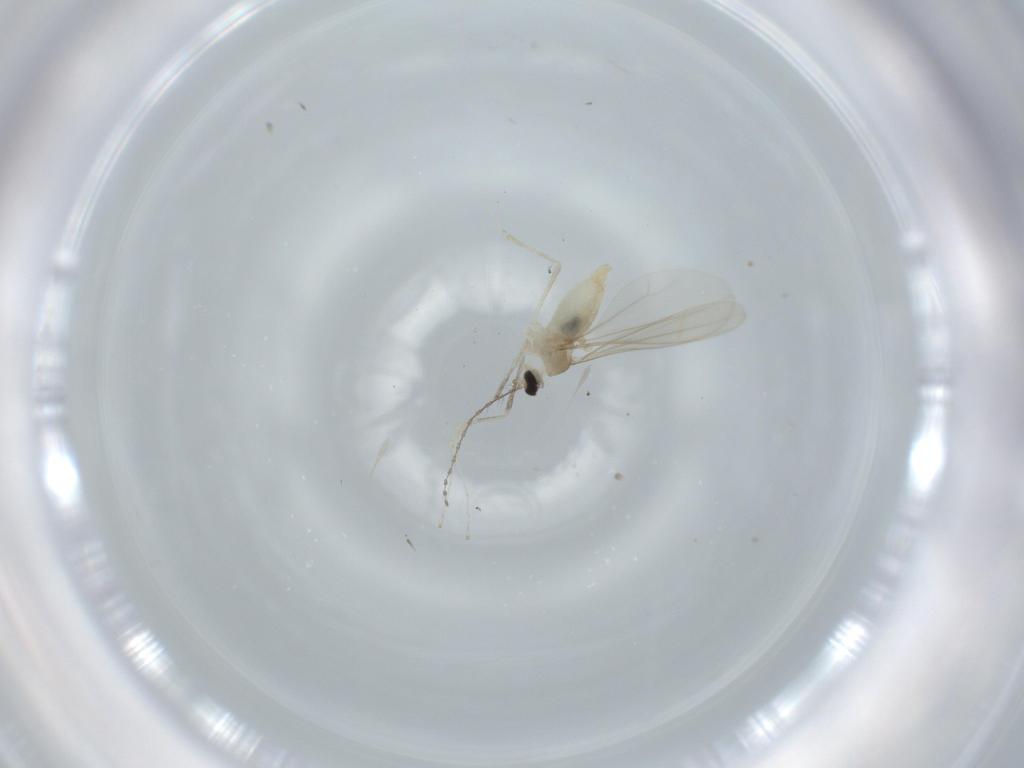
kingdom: Animalia
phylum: Arthropoda
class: Insecta
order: Diptera
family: Cecidomyiidae
